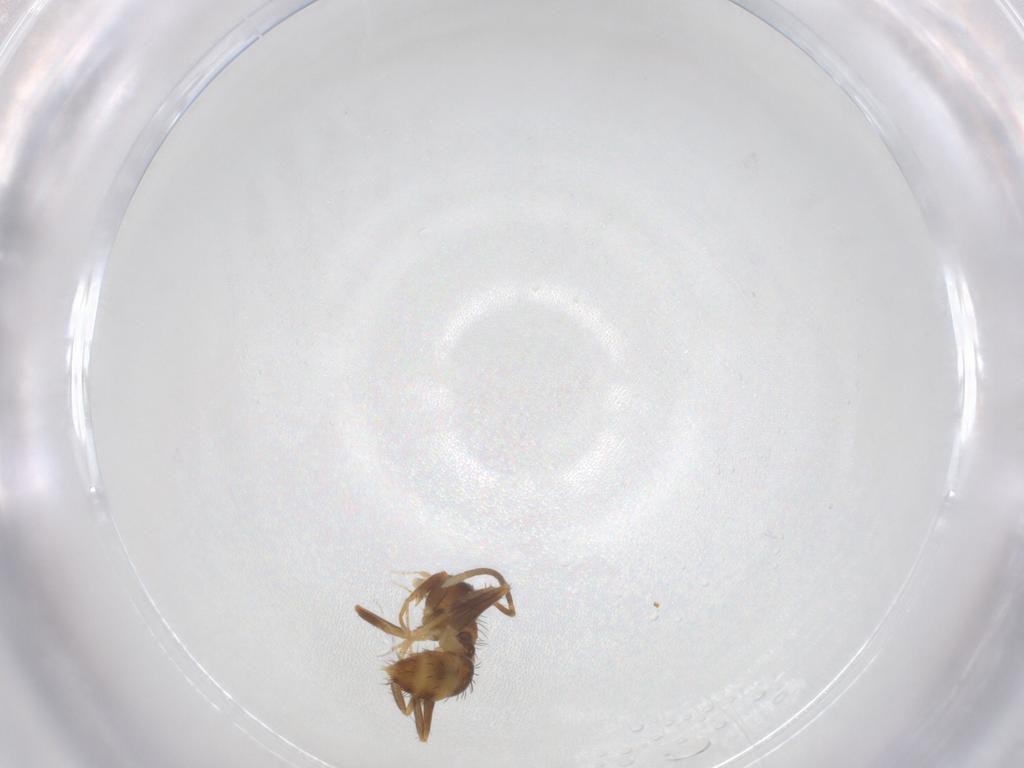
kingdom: Animalia
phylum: Arthropoda
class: Insecta
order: Hymenoptera
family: Formicidae
